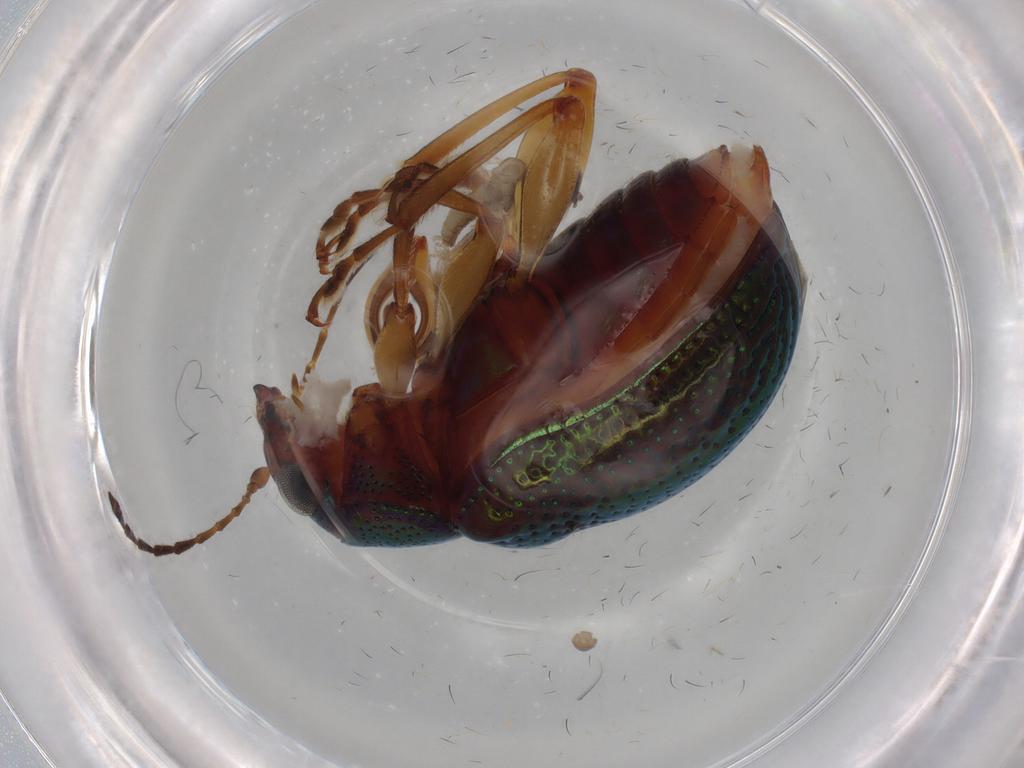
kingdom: Animalia
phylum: Arthropoda
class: Insecta
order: Coleoptera
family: Chrysomelidae
